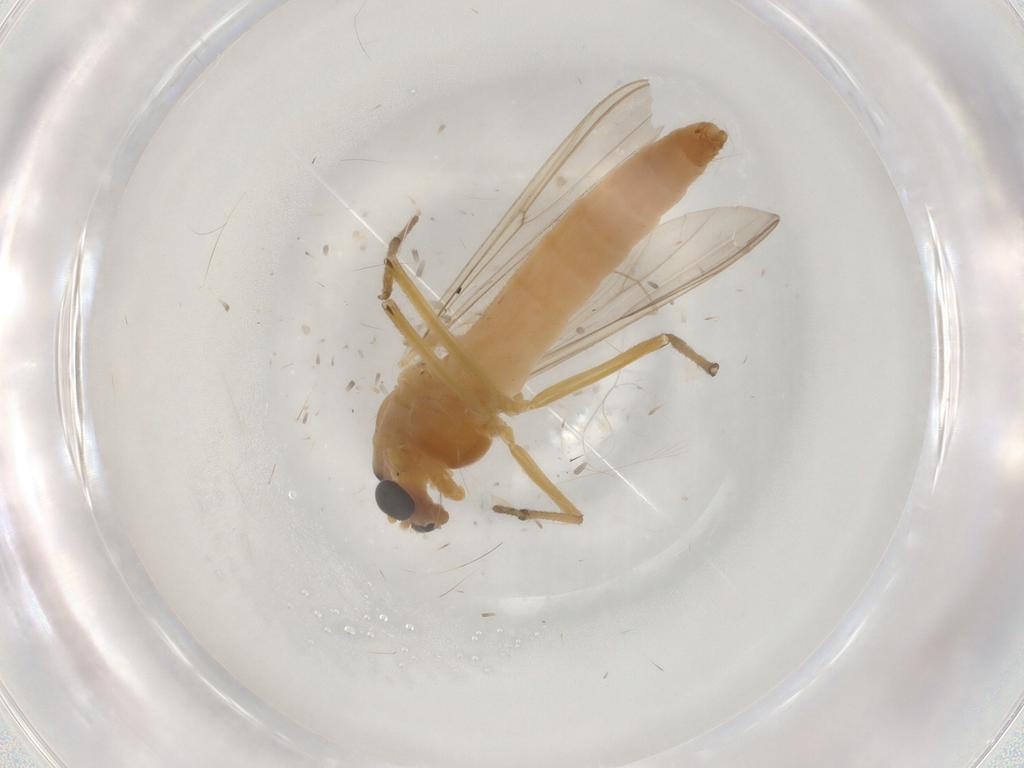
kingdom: Animalia
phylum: Arthropoda
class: Insecta
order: Diptera
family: Chironomidae
